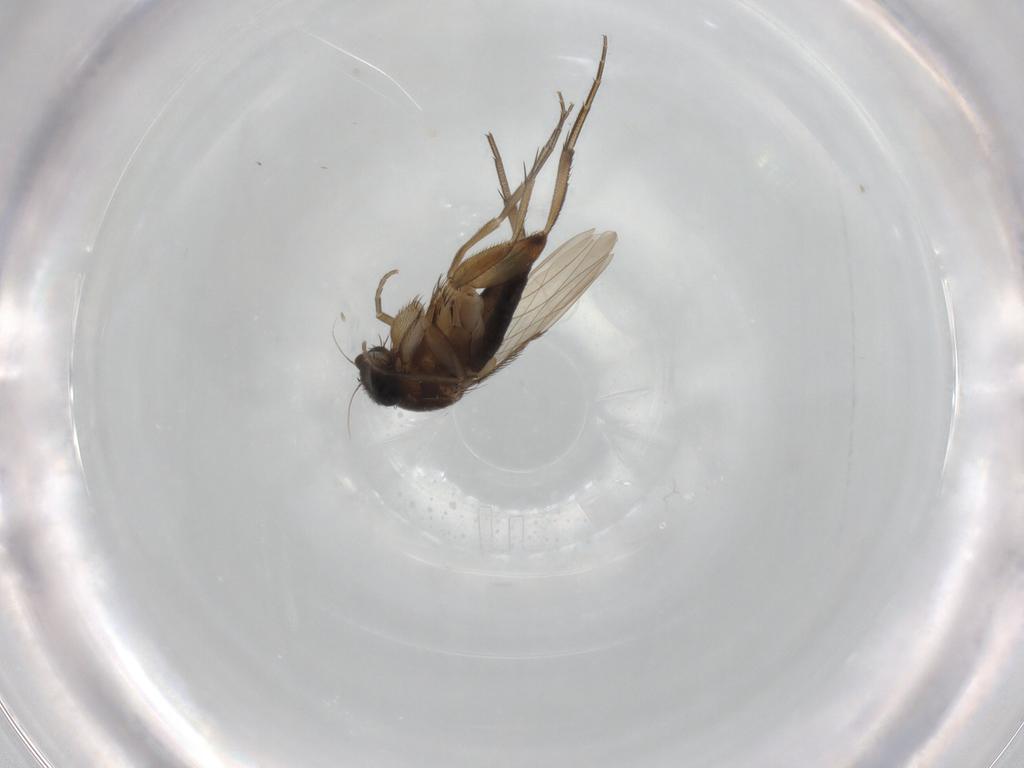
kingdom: Animalia
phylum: Arthropoda
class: Insecta
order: Diptera
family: Phoridae
